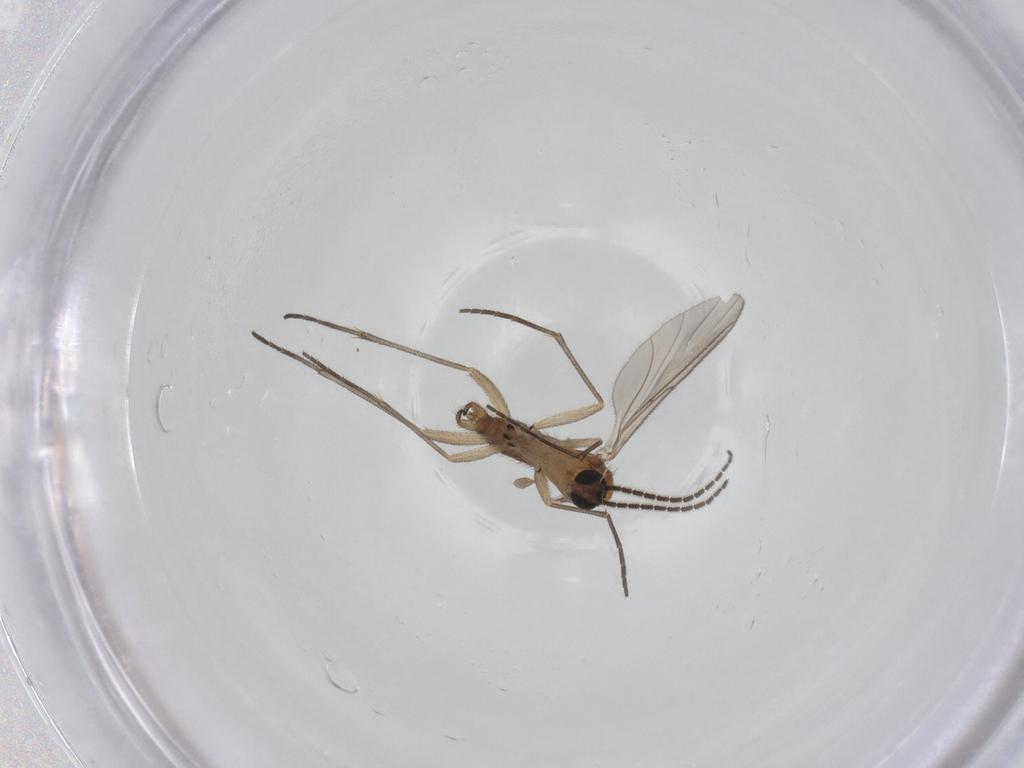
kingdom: Animalia
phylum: Arthropoda
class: Insecta
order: Diptera
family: Sciaridae
